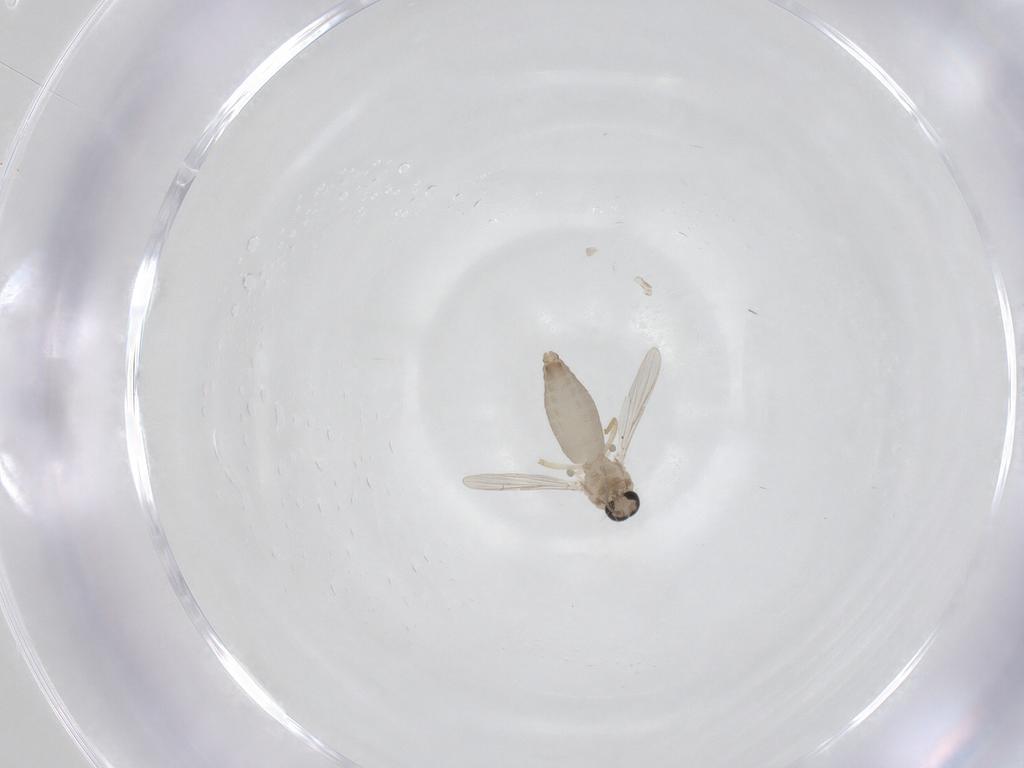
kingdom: Animalia
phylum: Arthropoda
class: Insecta
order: Diptera
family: Ceratopogonidae
